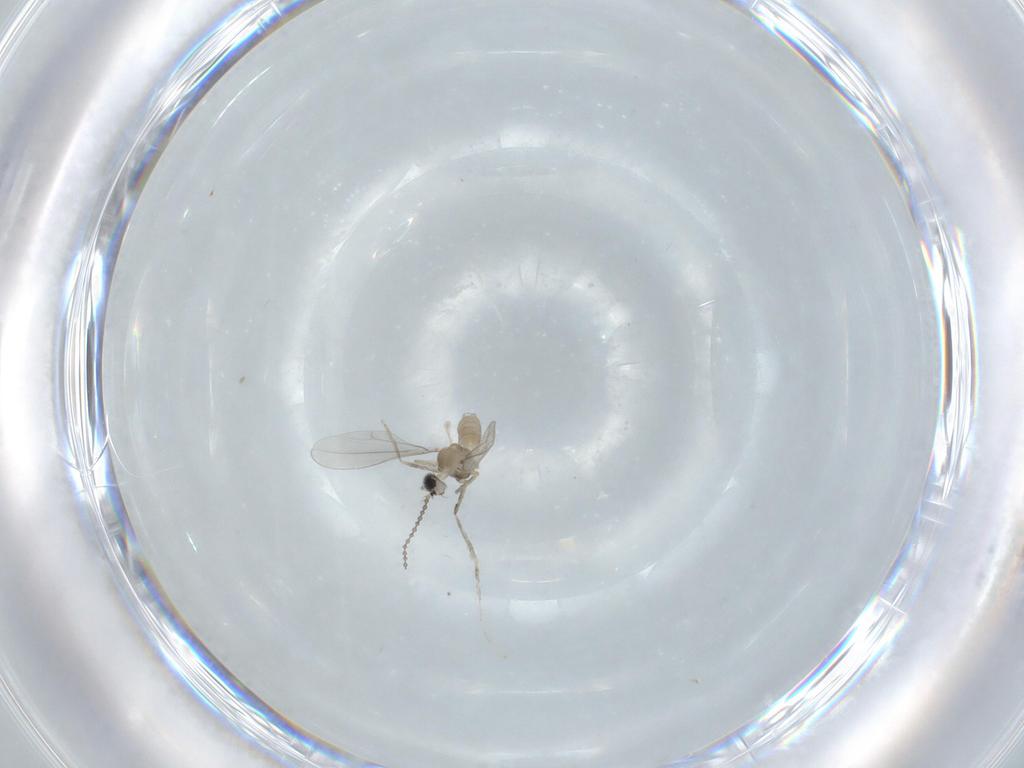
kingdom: Animalia
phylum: Arthropoda
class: Insecta
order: Diptera
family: Cecidomyiidae
